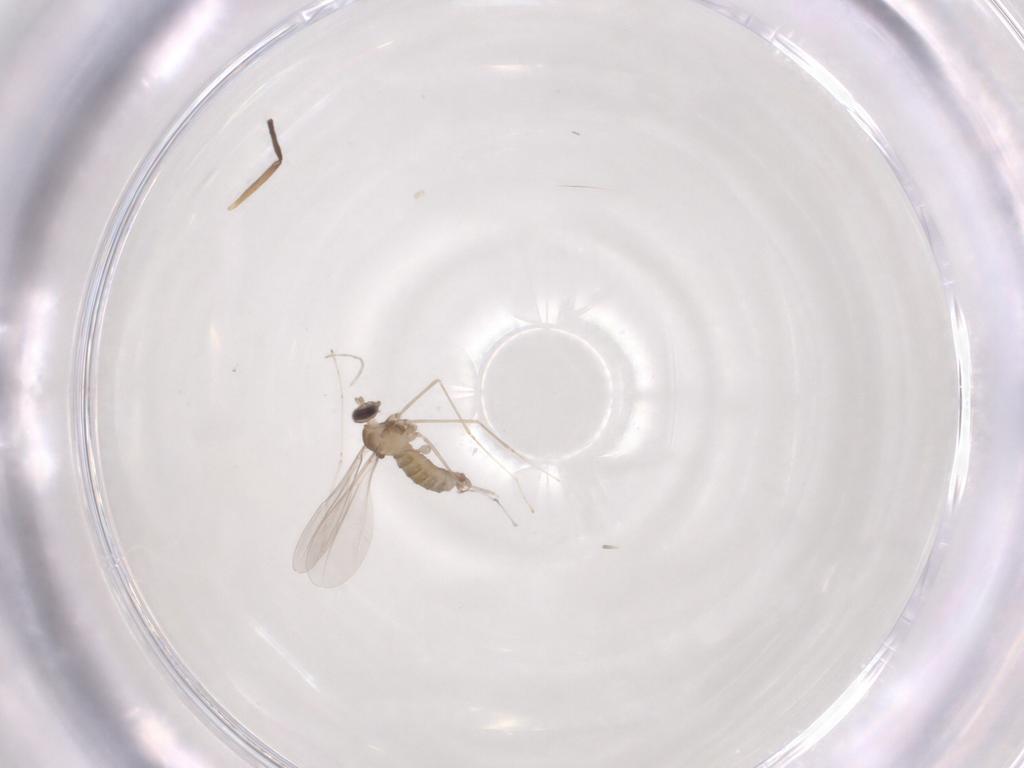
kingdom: Animalia
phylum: Arthropoda
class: Insecta
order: Diptera
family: Cecidomyiidae
